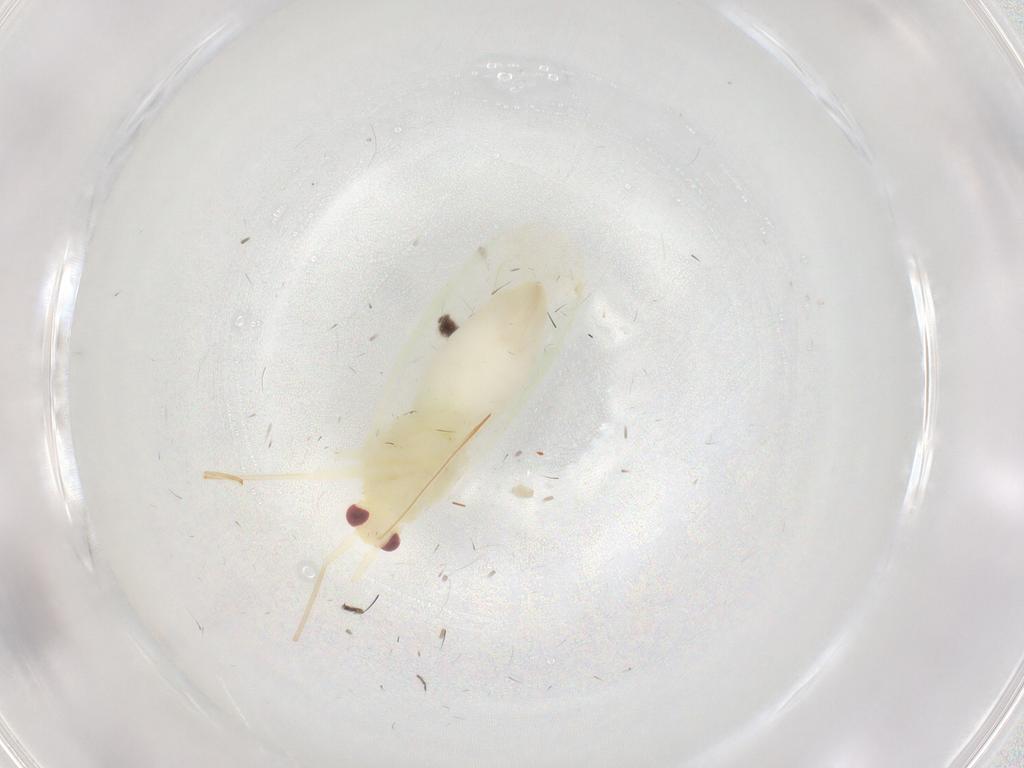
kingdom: Animalia
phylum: Arthropoda
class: Insecta
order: Hemiptera
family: Miridae
